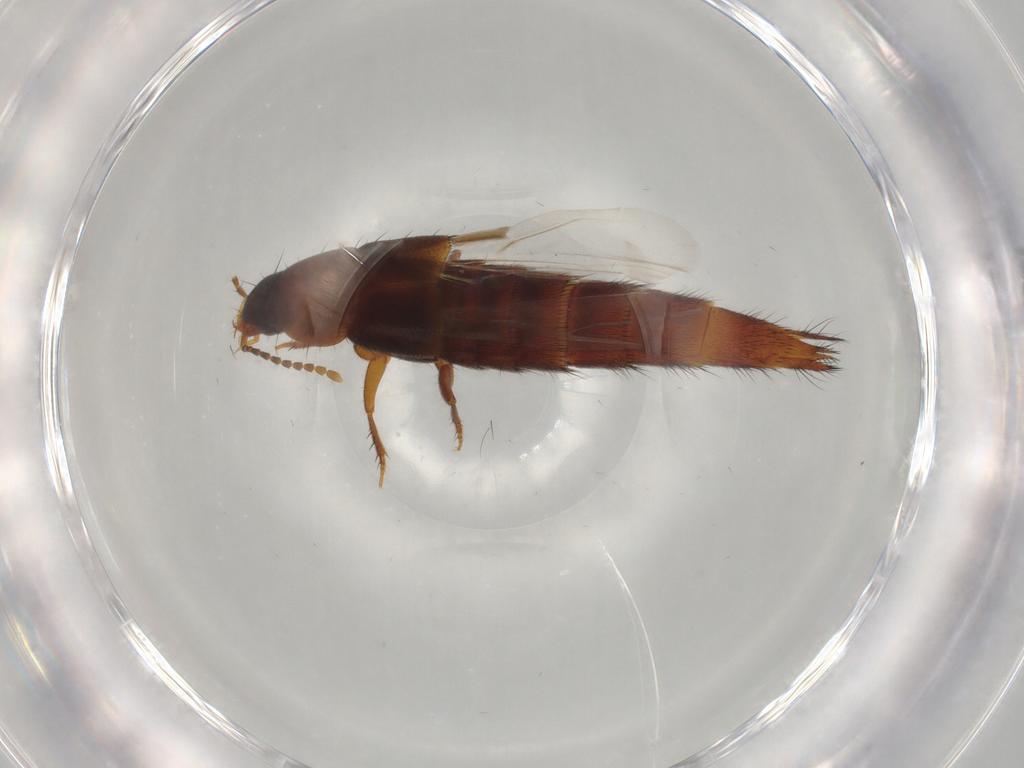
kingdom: Animalia
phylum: Arthropoda
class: Insecta
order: Coleoptera
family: Staphylinidae
